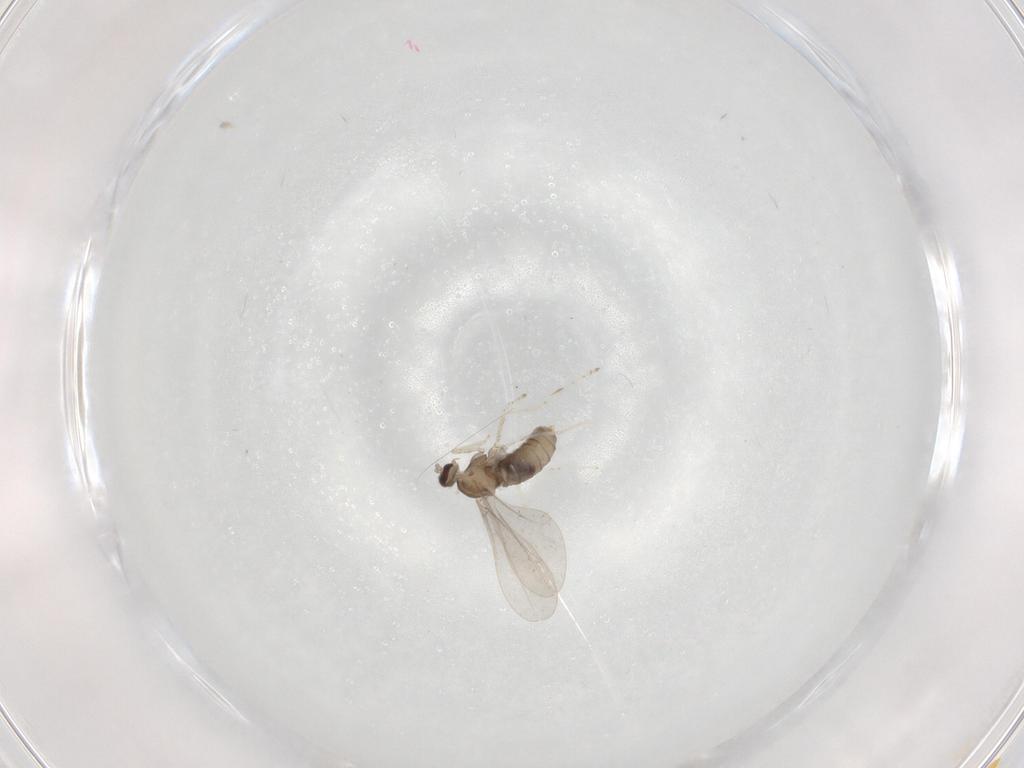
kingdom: Animalia
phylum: Arthropoda
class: Insecta
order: Diptera
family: Cecidomyiidae
